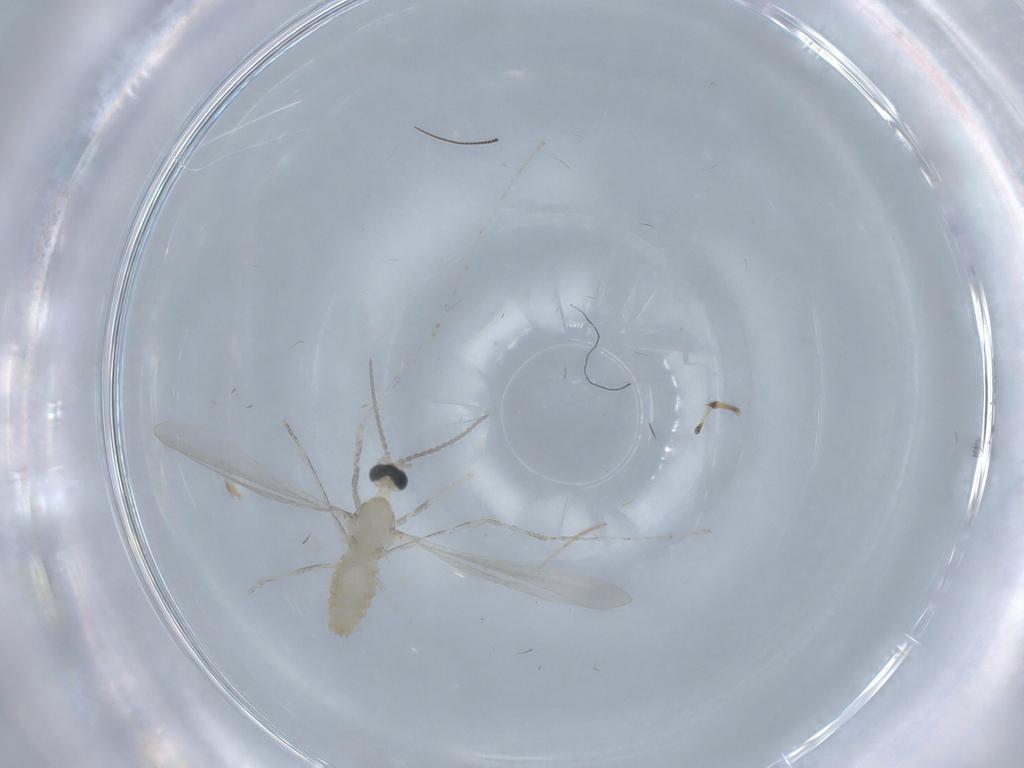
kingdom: Animalia
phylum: Arthropoda
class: Insecta
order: Diptera
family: Cecidomyiidae
